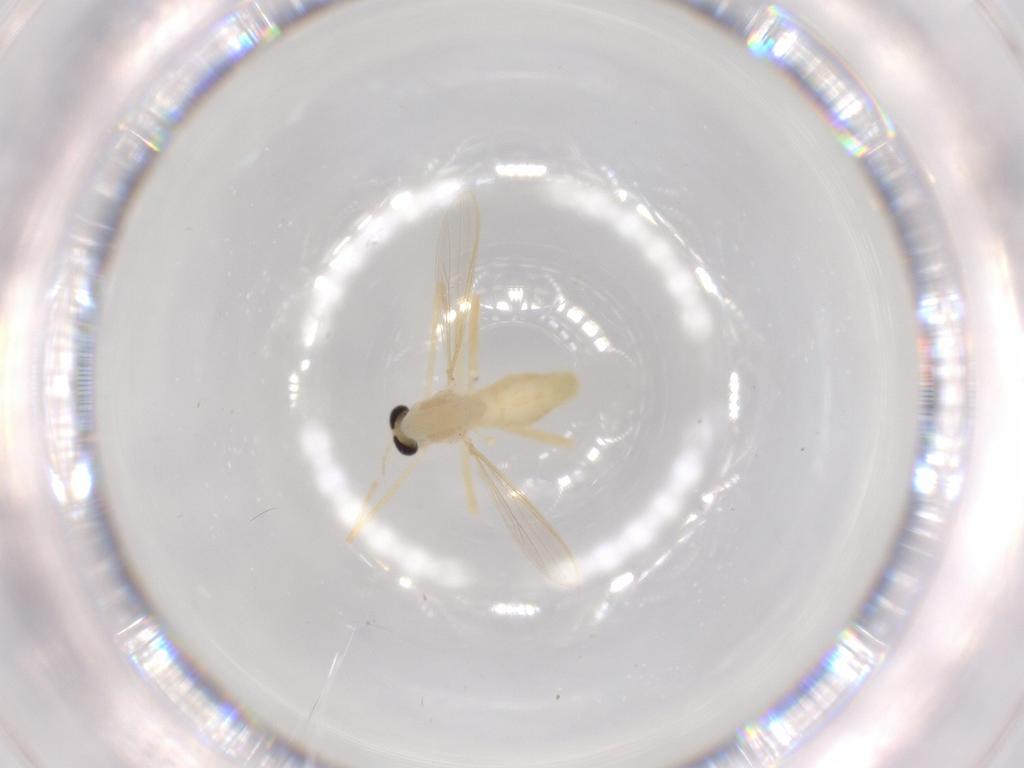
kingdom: Animalia
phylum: Arthropoda
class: Insecta
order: Diptera
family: Chironomidae
